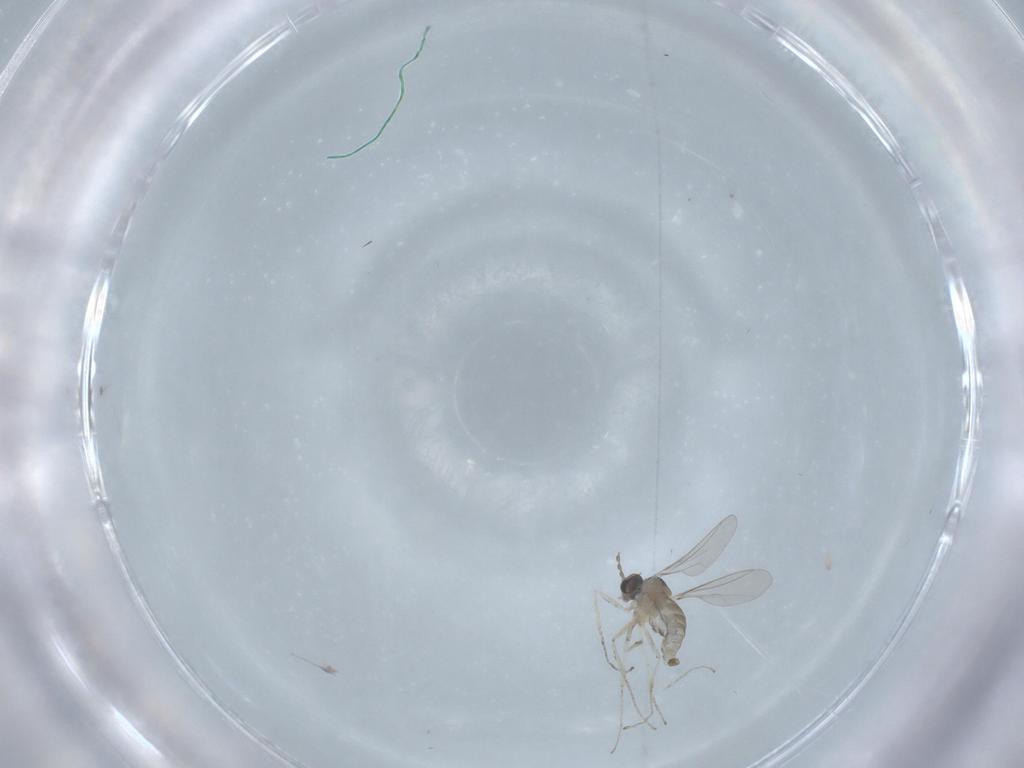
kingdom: Animalia
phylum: Arthropoda
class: Insecta
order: Diptera
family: Cecidomyiidae
